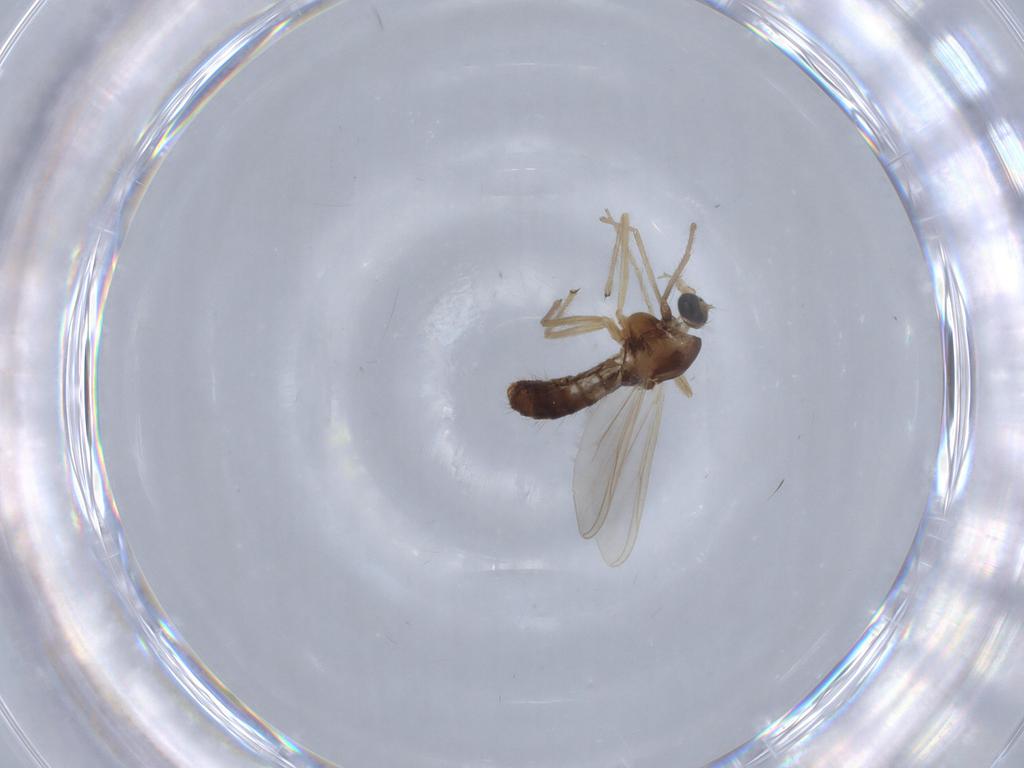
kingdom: Animalia
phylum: Arthropoda
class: Insecta
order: Diptera
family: Chironomidae
